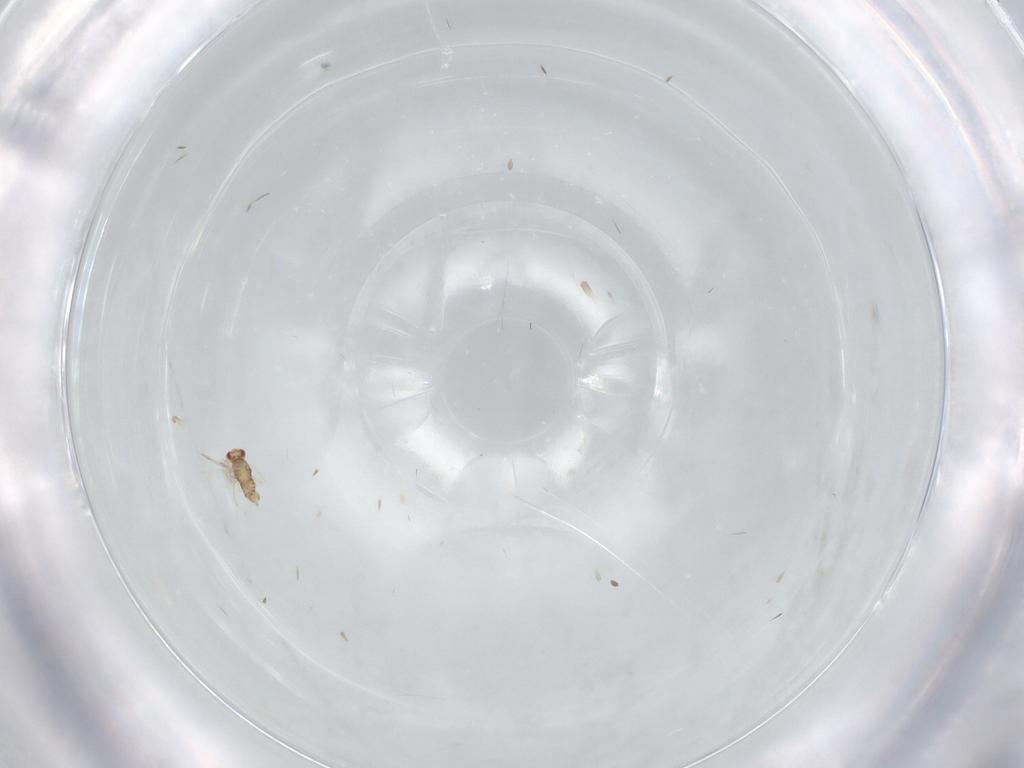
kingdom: Animalia
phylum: Arthropoda
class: Insecta
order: Hymenoptera
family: Aphelinidae
